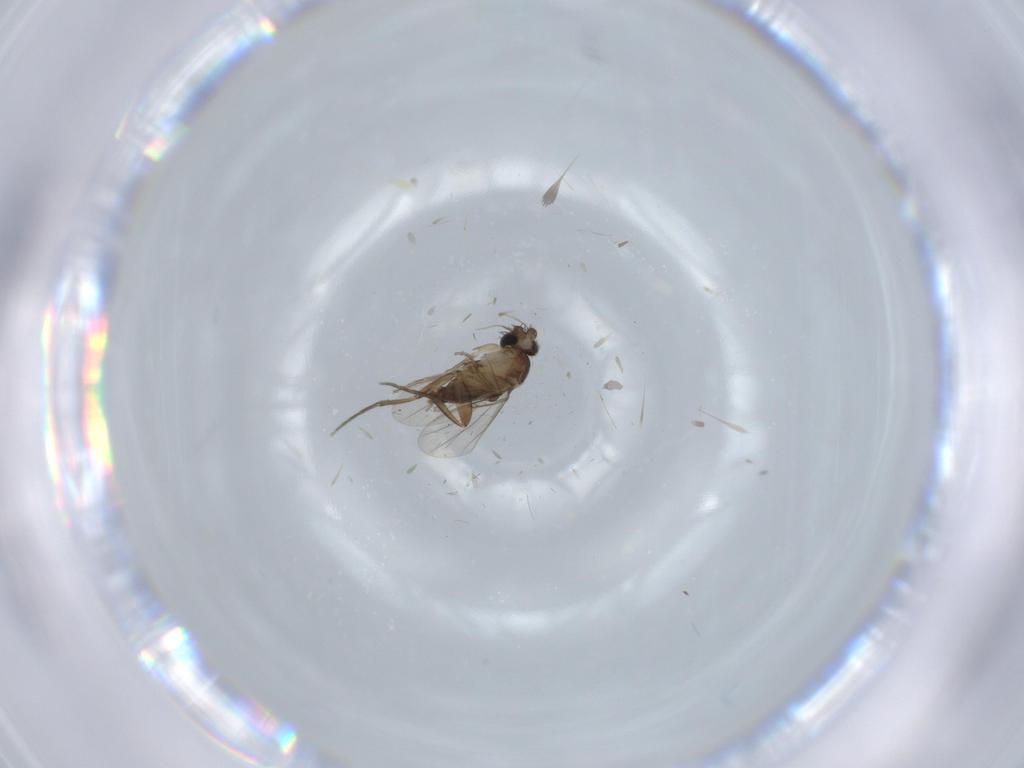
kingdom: Animalia
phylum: Arthropoda
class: Insecta
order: Diptera
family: Phoridae
